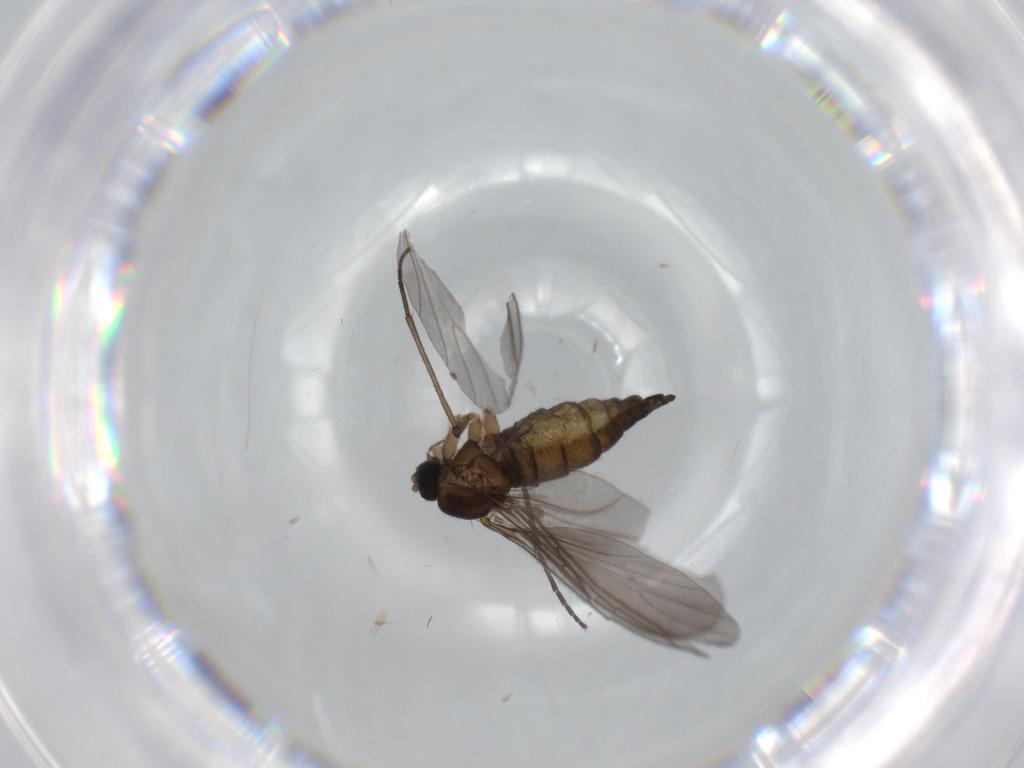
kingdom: Animalia
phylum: Arthropoda
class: Insecta
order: Diptera
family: Sciaridae
